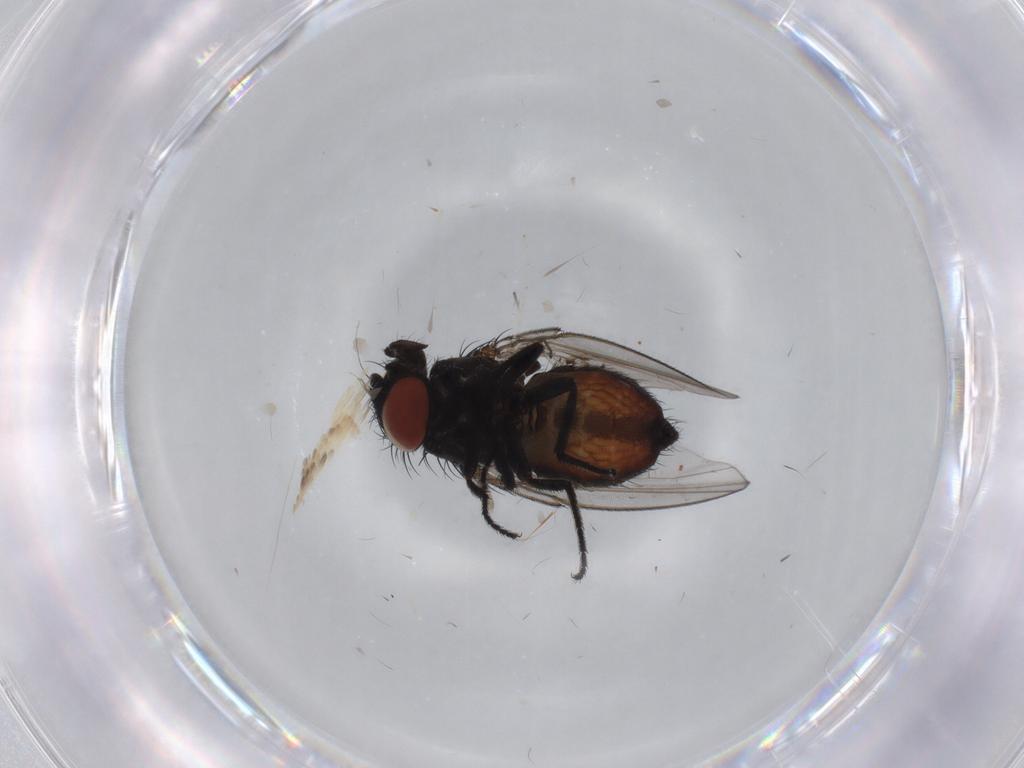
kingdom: Animalia
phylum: Arthropoda
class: Insecta
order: Diptera
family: Milichiidae
